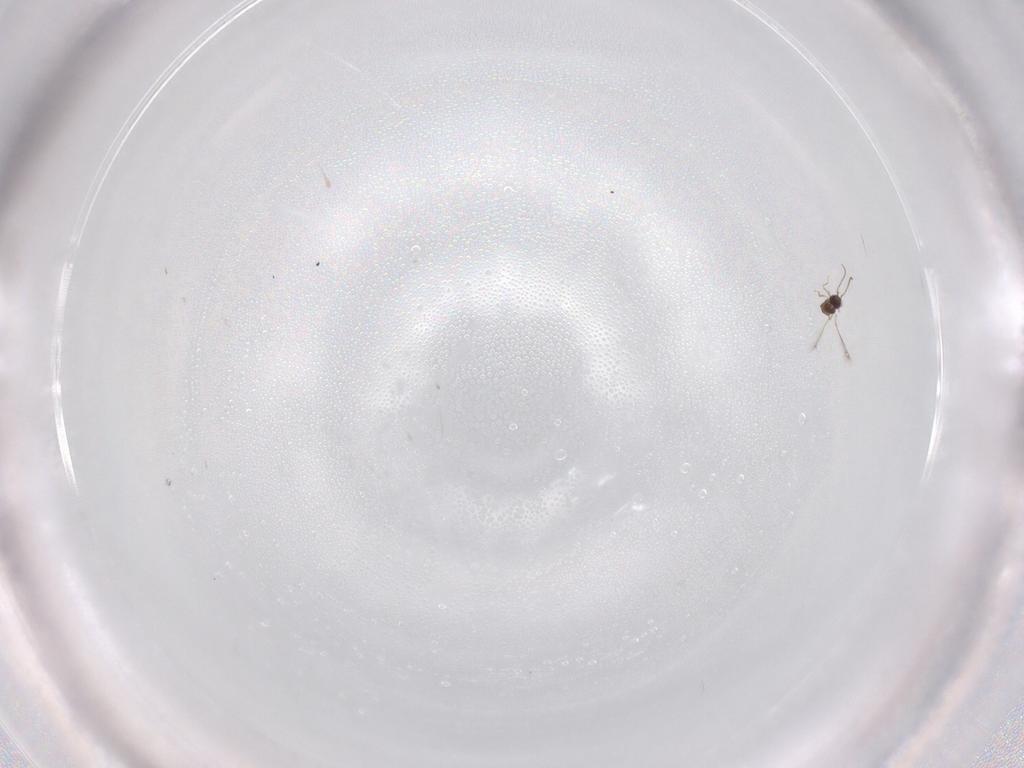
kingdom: Animalia
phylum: Arthropoda
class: Insecta
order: Hymenoptera
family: Mymaridae
